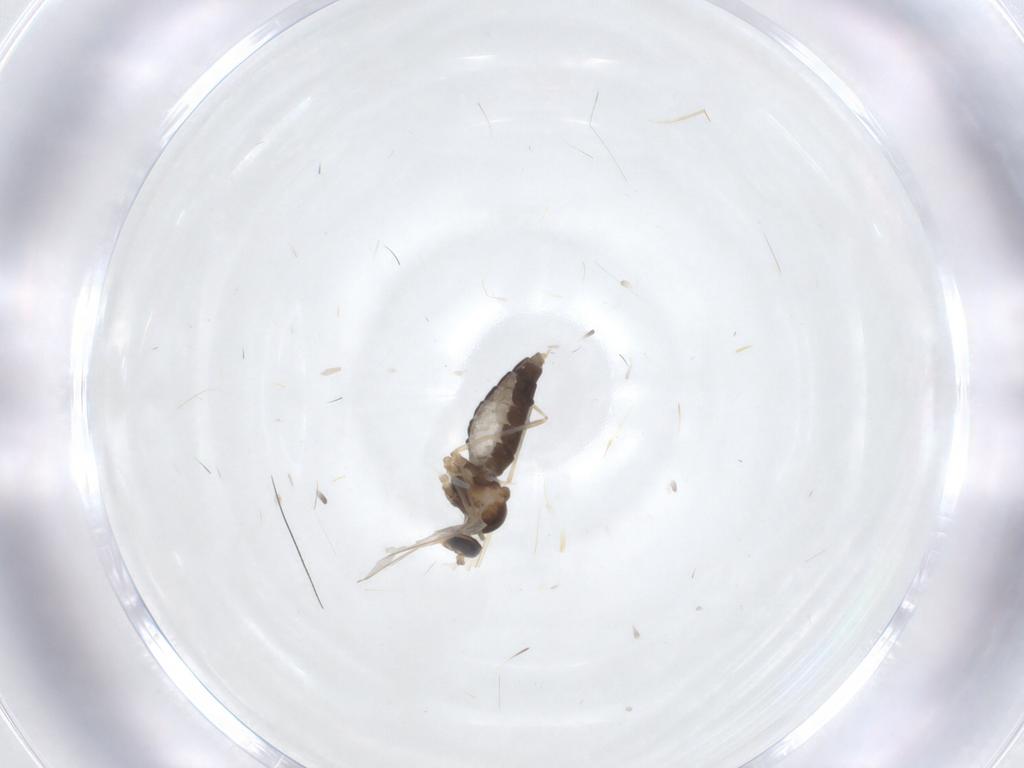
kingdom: Animalia
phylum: Arthropoda
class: Insecta
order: Diptera
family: Cecidomyiidae
